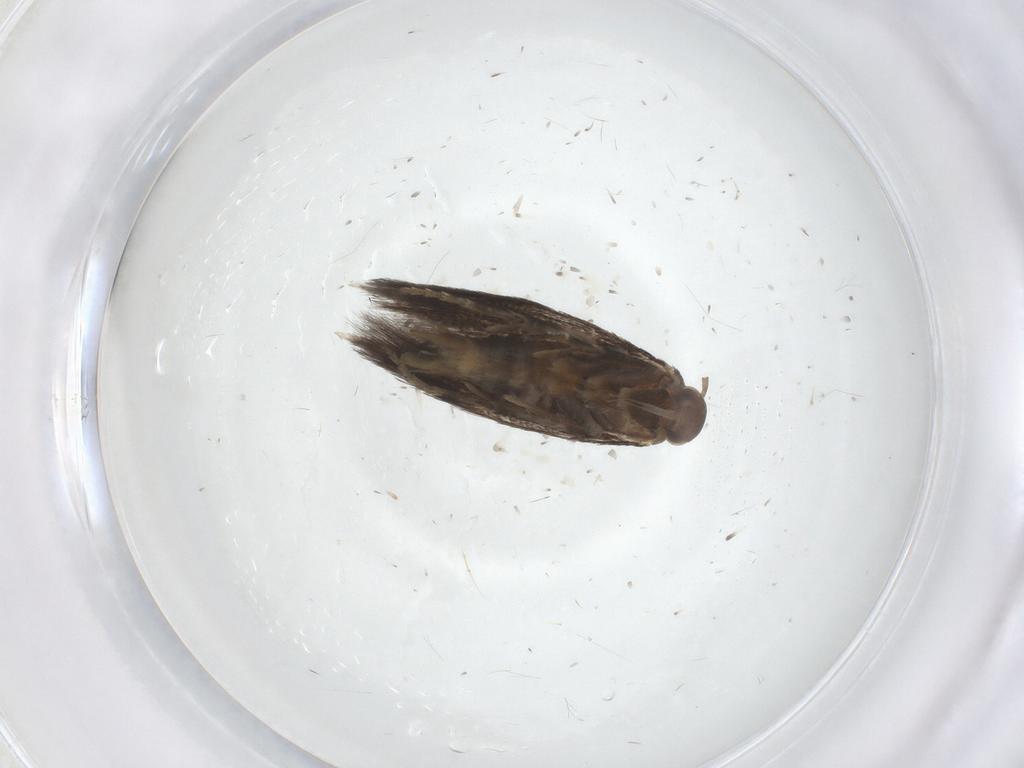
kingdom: Animalia
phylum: Arthropoda
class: Insecta
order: Lepidoptera
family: Elachistidae
